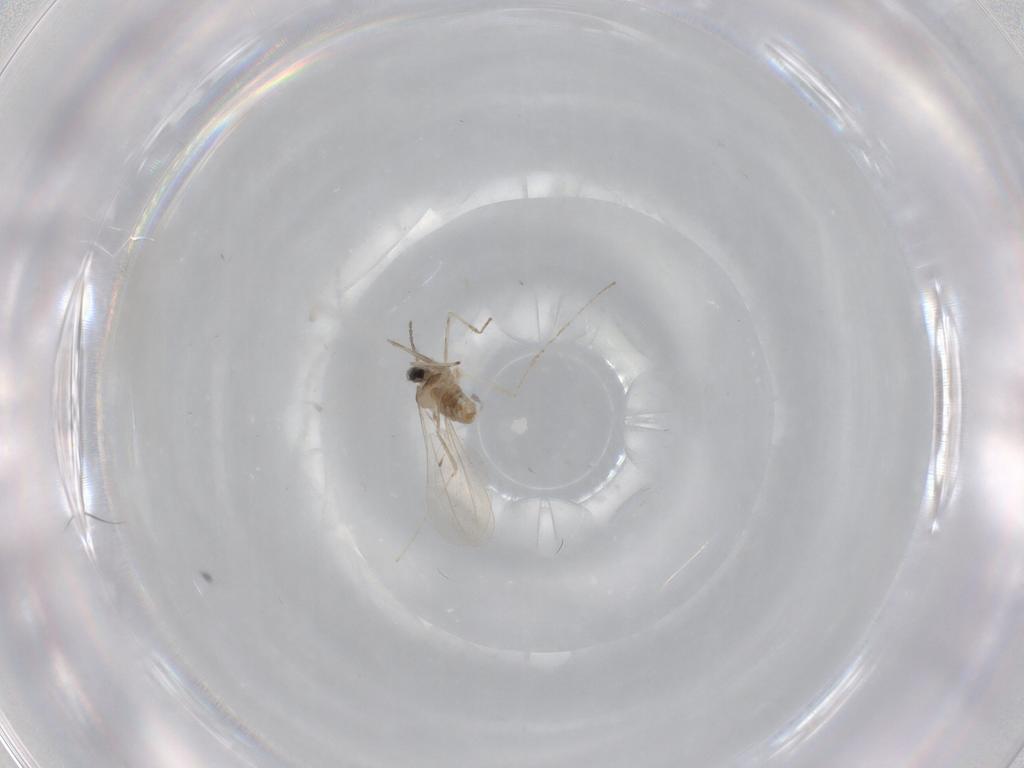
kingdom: Animalia
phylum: Arthropoda
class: Insecta
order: Diptera
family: Cecidomyiidae
